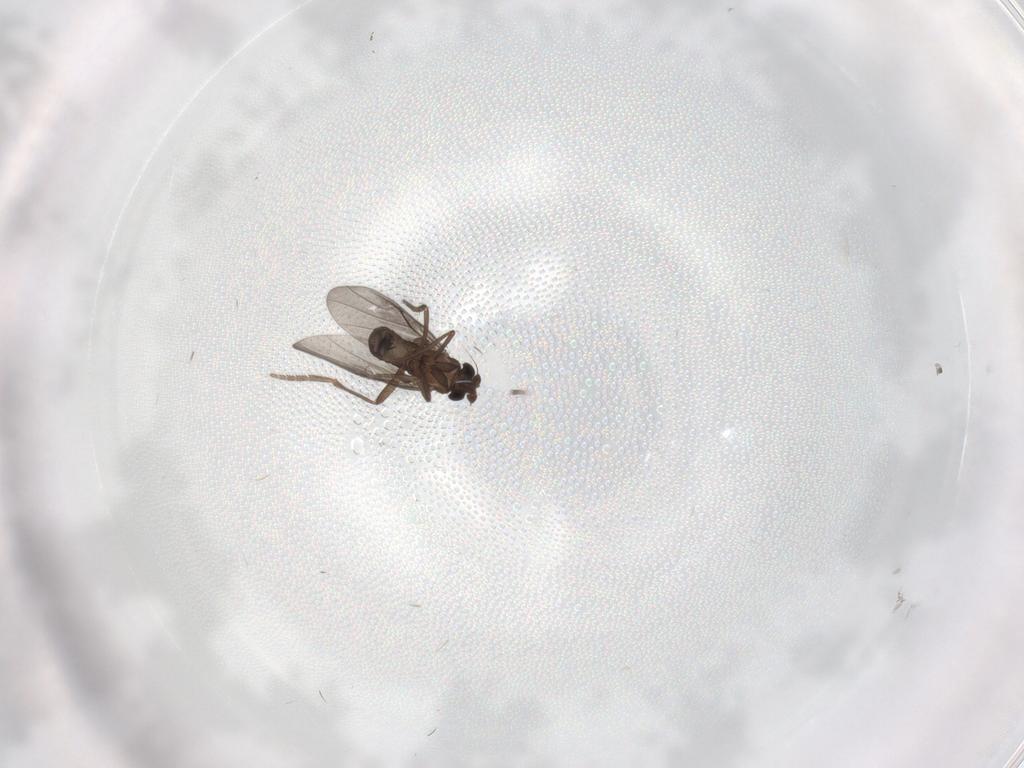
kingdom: Animalia
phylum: Arthropoda
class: Insecta
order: Diptera
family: Phoridae
